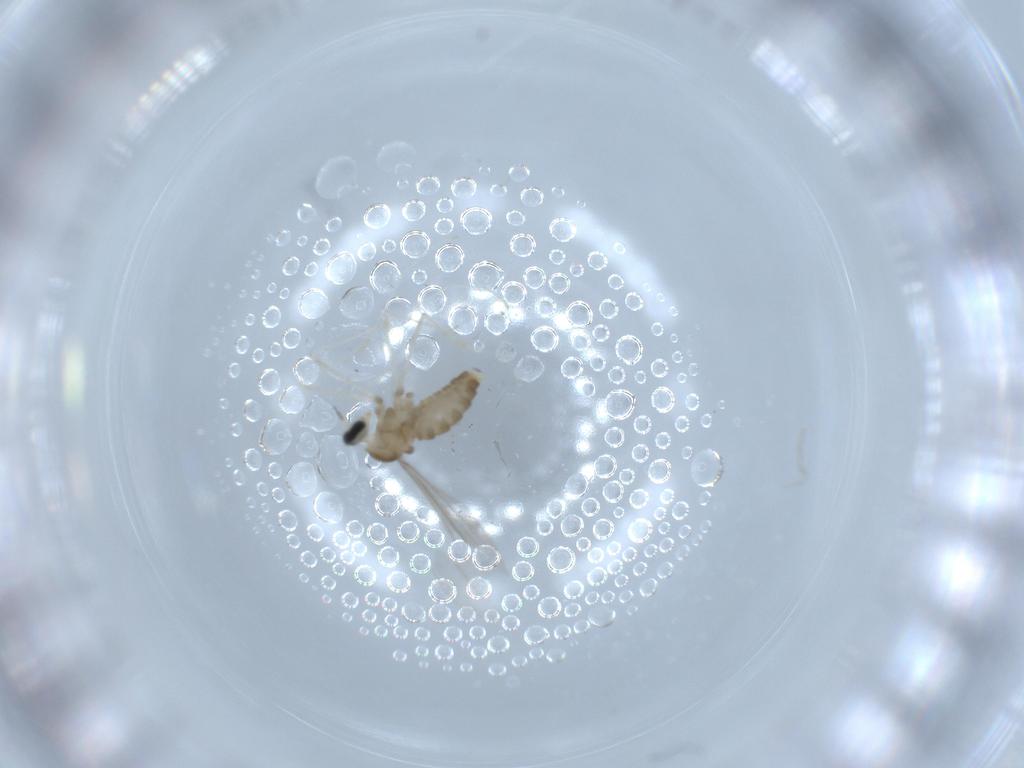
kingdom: Animalia
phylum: Arthropoda
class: Insecta
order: Diptera
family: Cecidomyiidae
